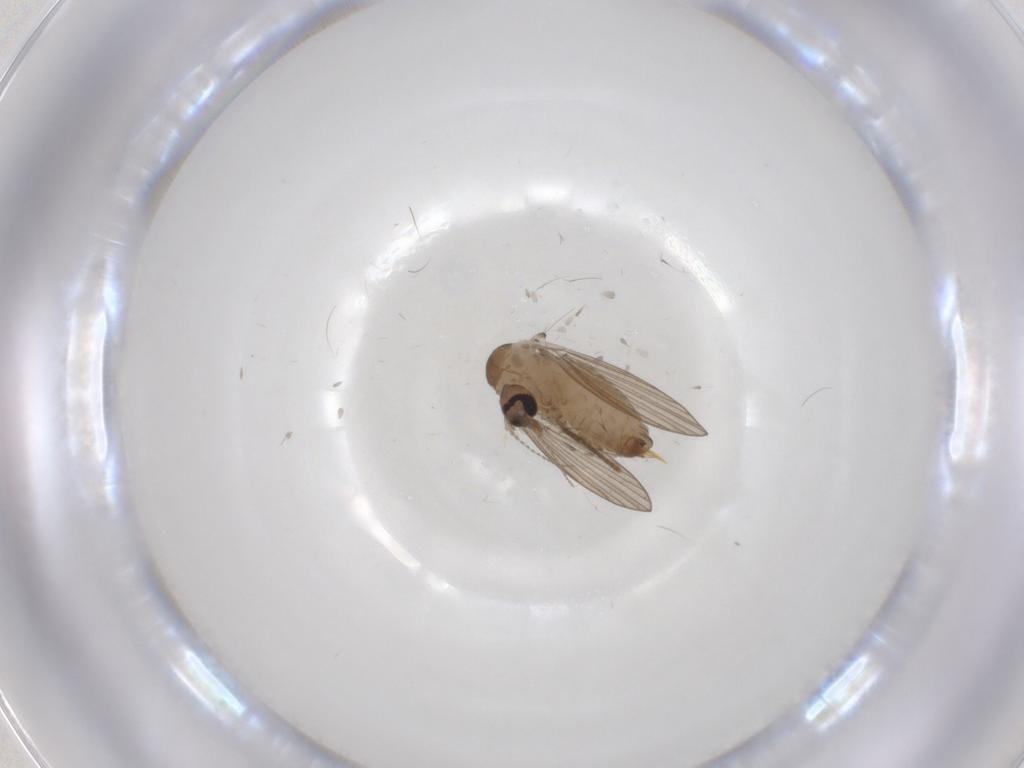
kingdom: Animalia
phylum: Arthropoda
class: Insecta
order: Diptera
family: Psychodidae
